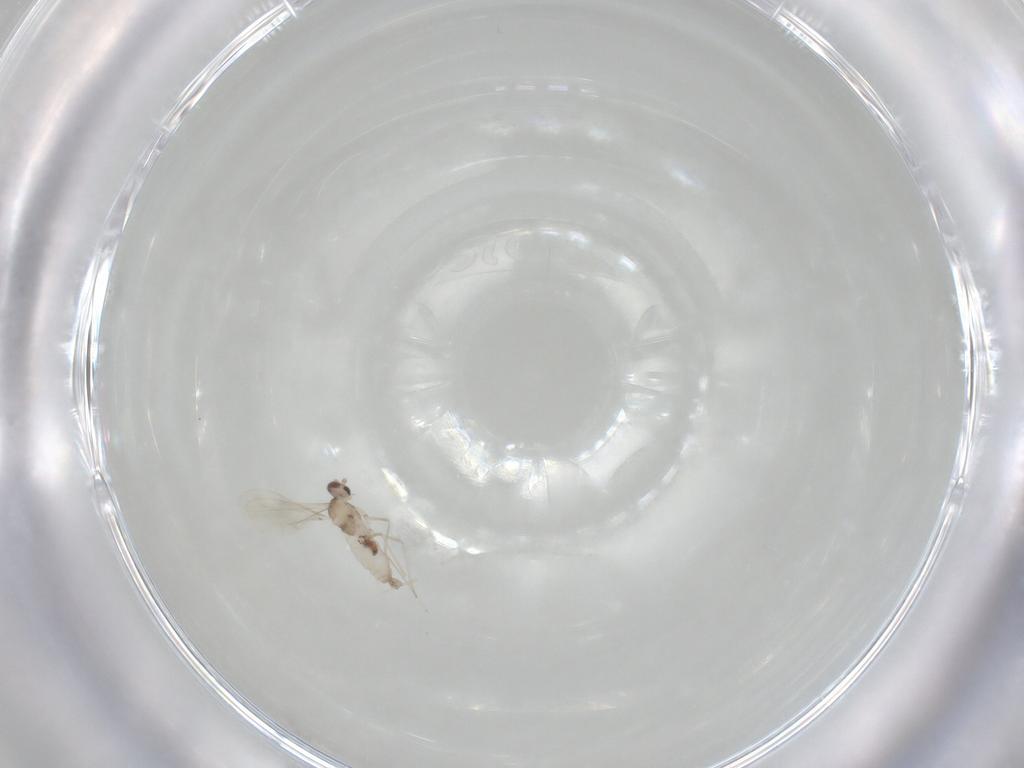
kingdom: Animalia
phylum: Arthropoda
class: Insecta
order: Diptera
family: Cecidomyiidae
